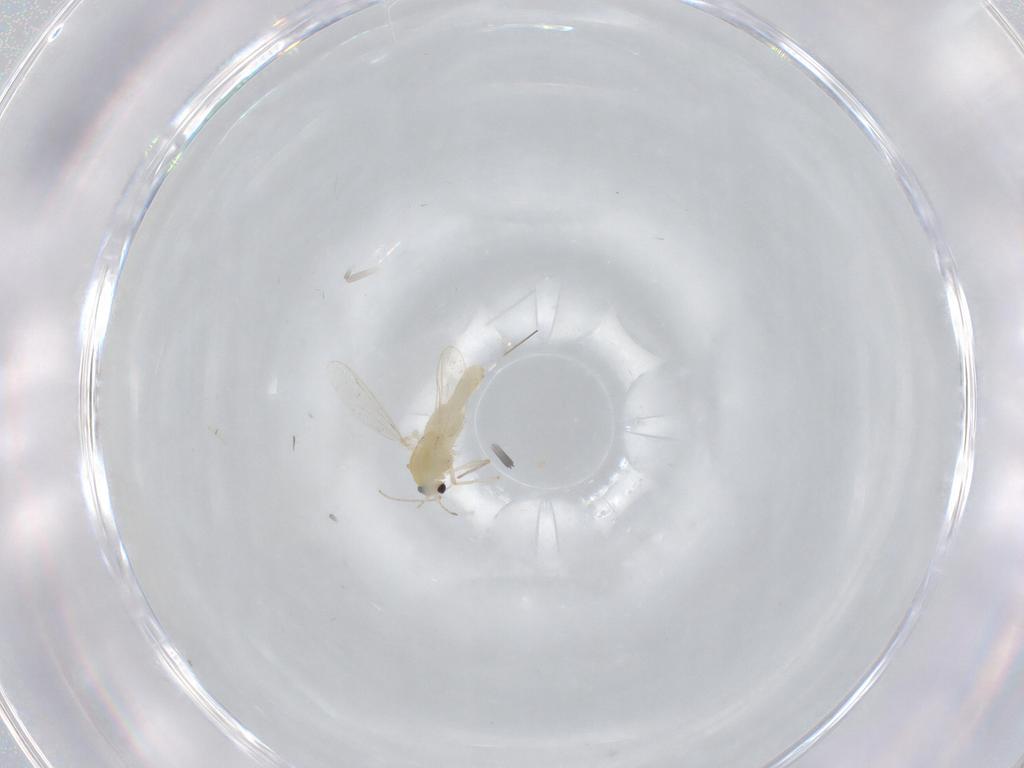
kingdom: Animalia
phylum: Arthropoda
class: Insecta
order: Diptera
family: Chironomidae
